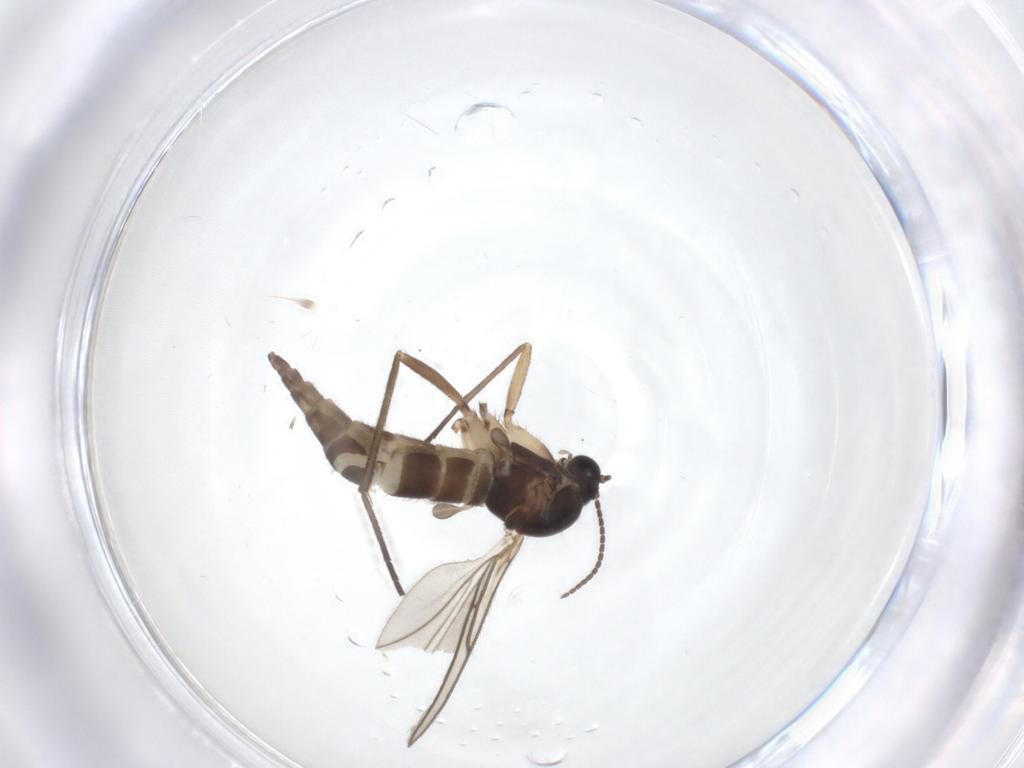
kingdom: Animalia
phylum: Arthropoda
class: Insecta
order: Diptera
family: Sciaridae
